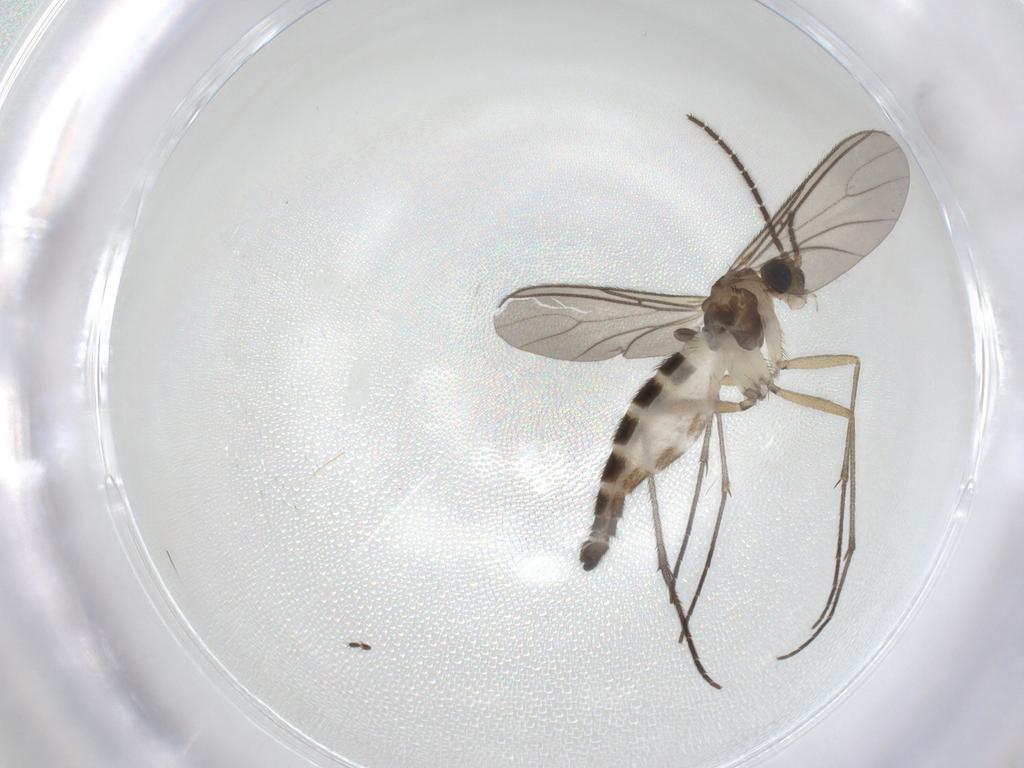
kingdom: Animalia
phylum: Arthropoda
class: Insecta
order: Diptera
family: Sciaridae
